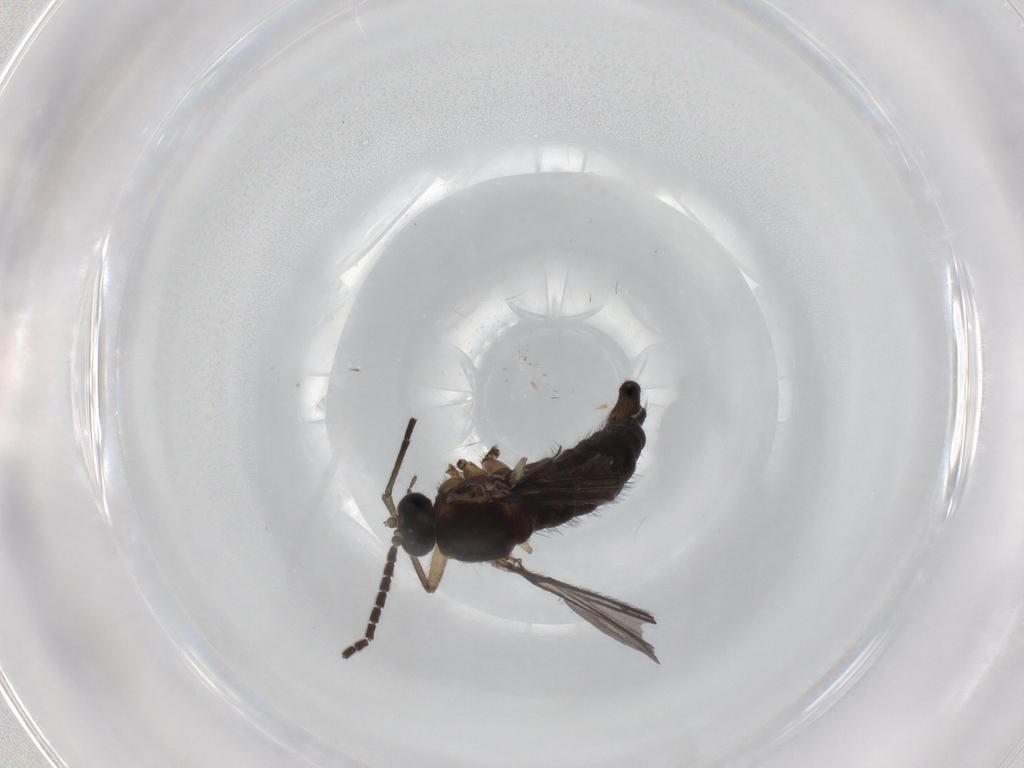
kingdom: Animalia
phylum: Arthropoda
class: Insecta
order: Diptera
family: Sciaridae
